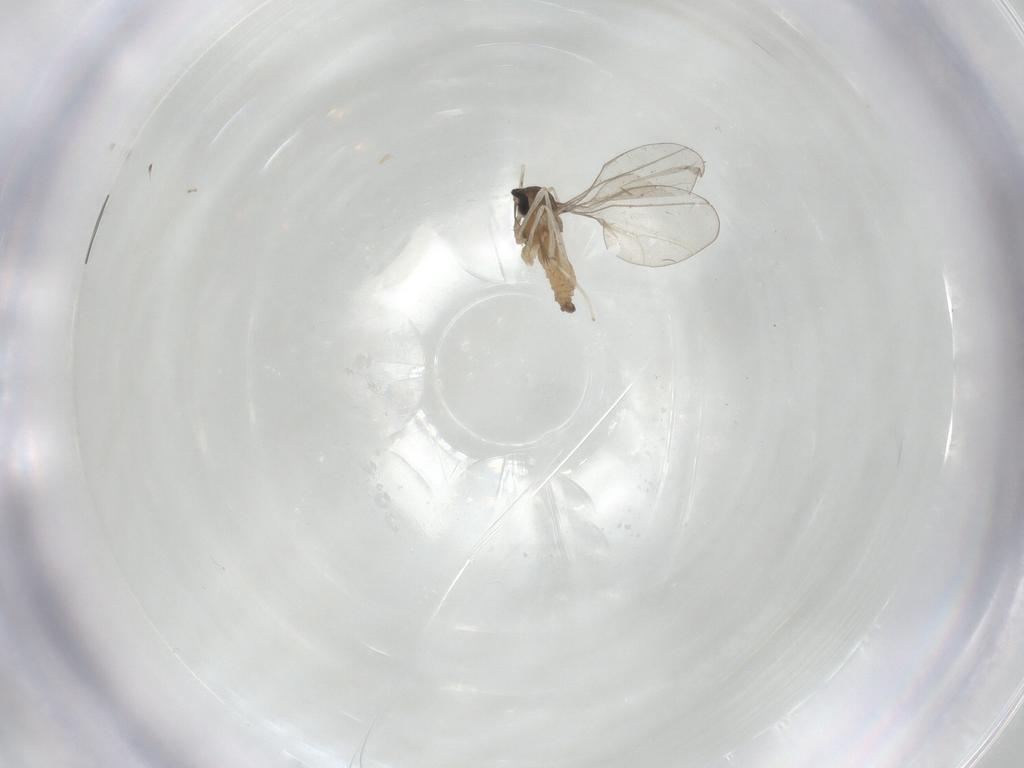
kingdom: Animalia
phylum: Arthropoda
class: Insecta
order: Diptera
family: Cecidomyiidae
